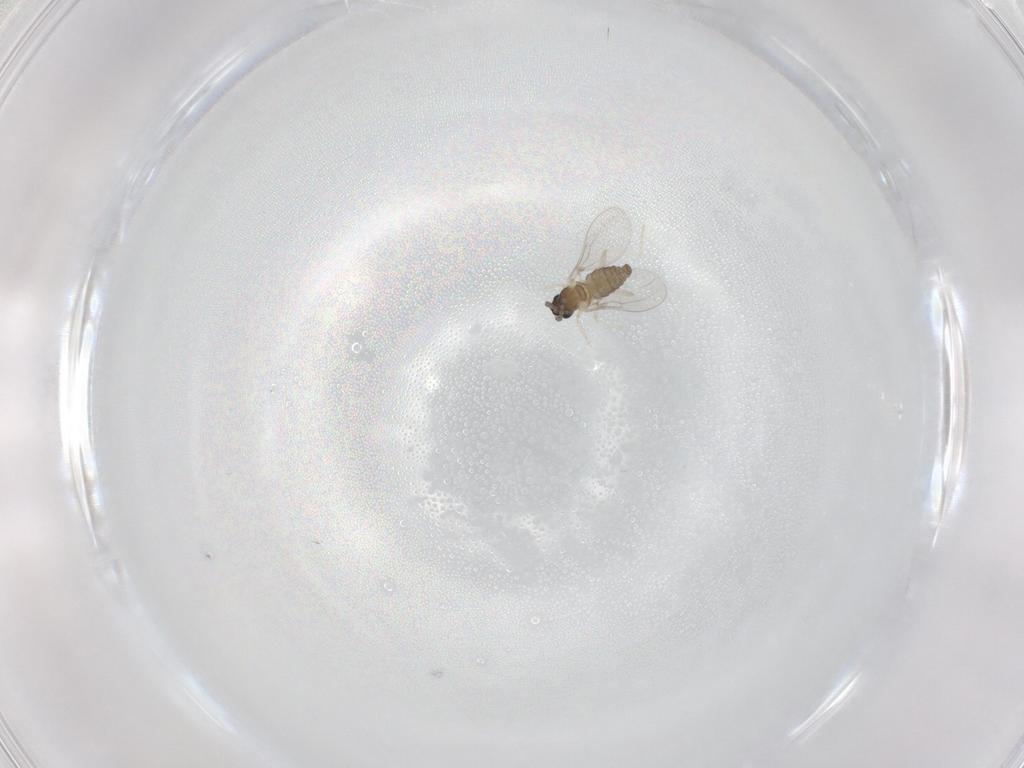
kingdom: Animalia
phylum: Arthropoda
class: Insecta
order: Diptera
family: Cecidomyiidae
